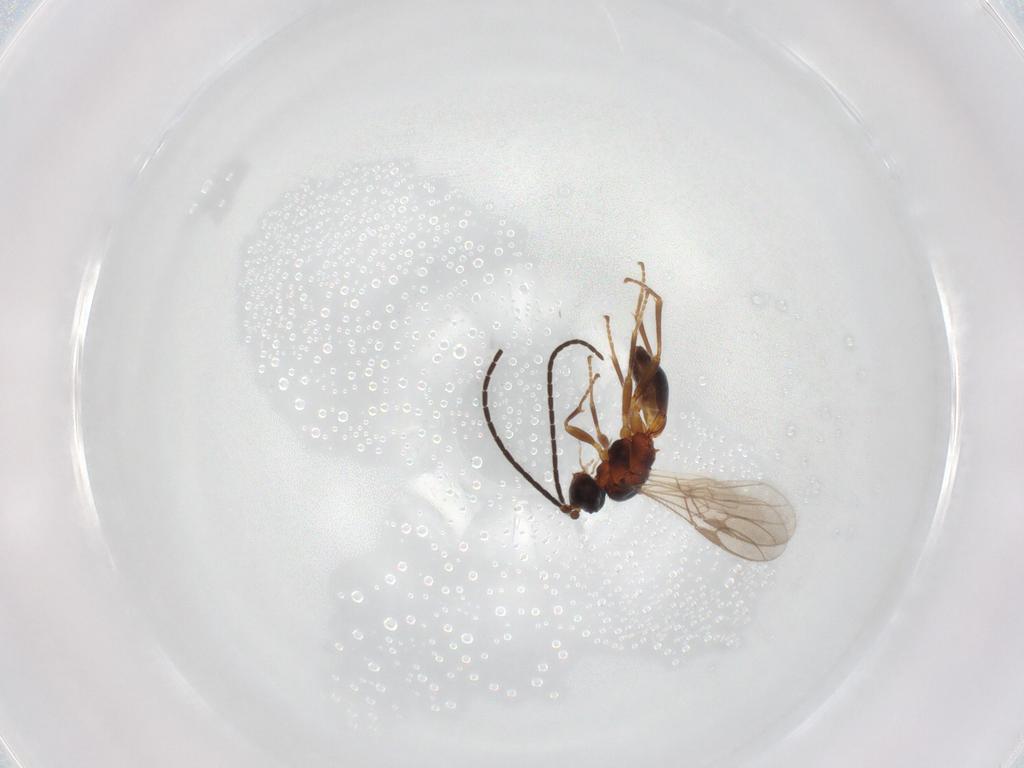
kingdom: Animalia
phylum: Arthropoda
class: Insecta
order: Hymenoptera
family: Braconidae
